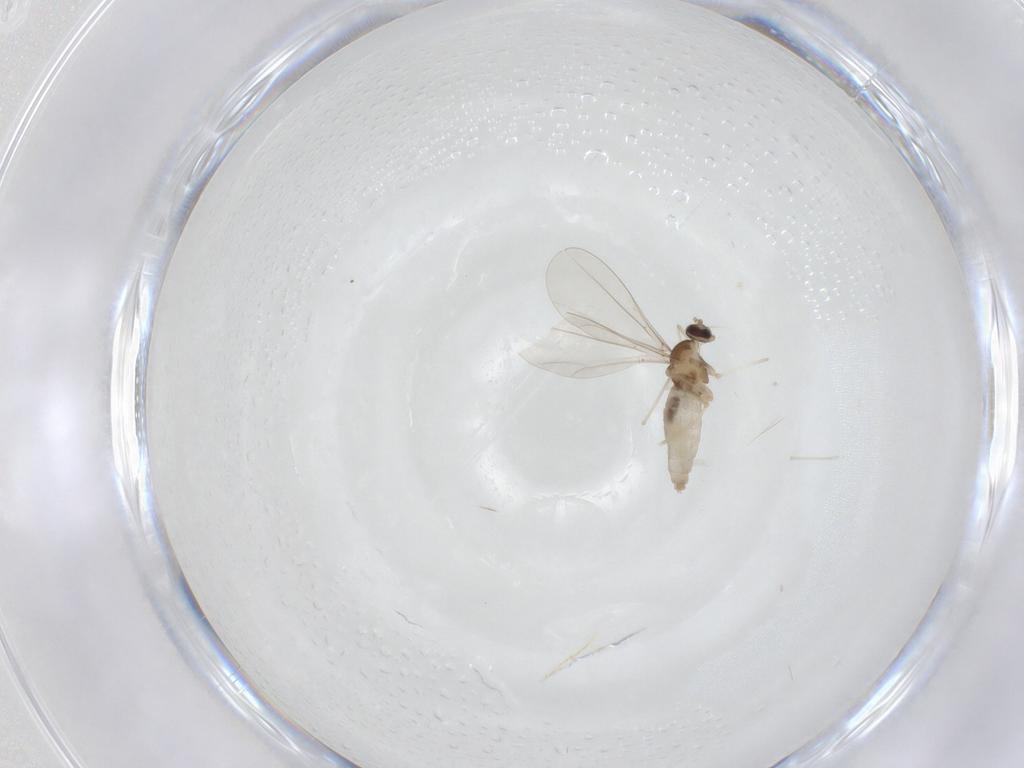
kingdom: Animalia
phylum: Arthropoda
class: Insecta
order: Diptera
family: Cecidomyiidae
